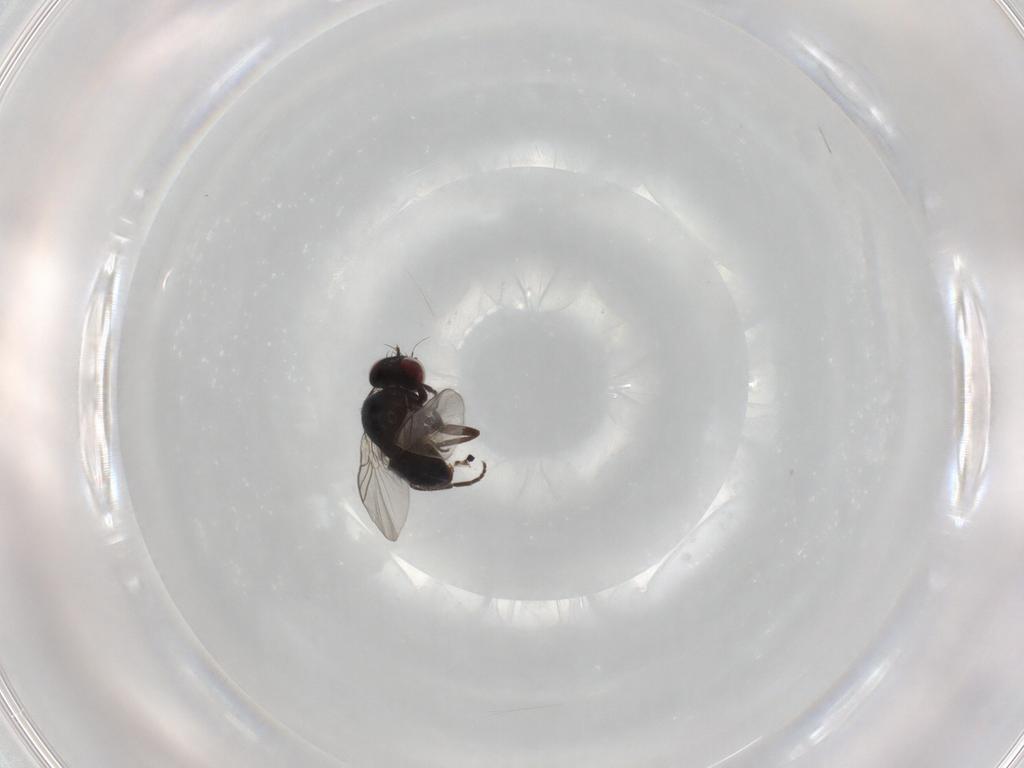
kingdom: Animalia
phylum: Arthropoda
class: Insecta
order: Diptera
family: Agromyzidae
